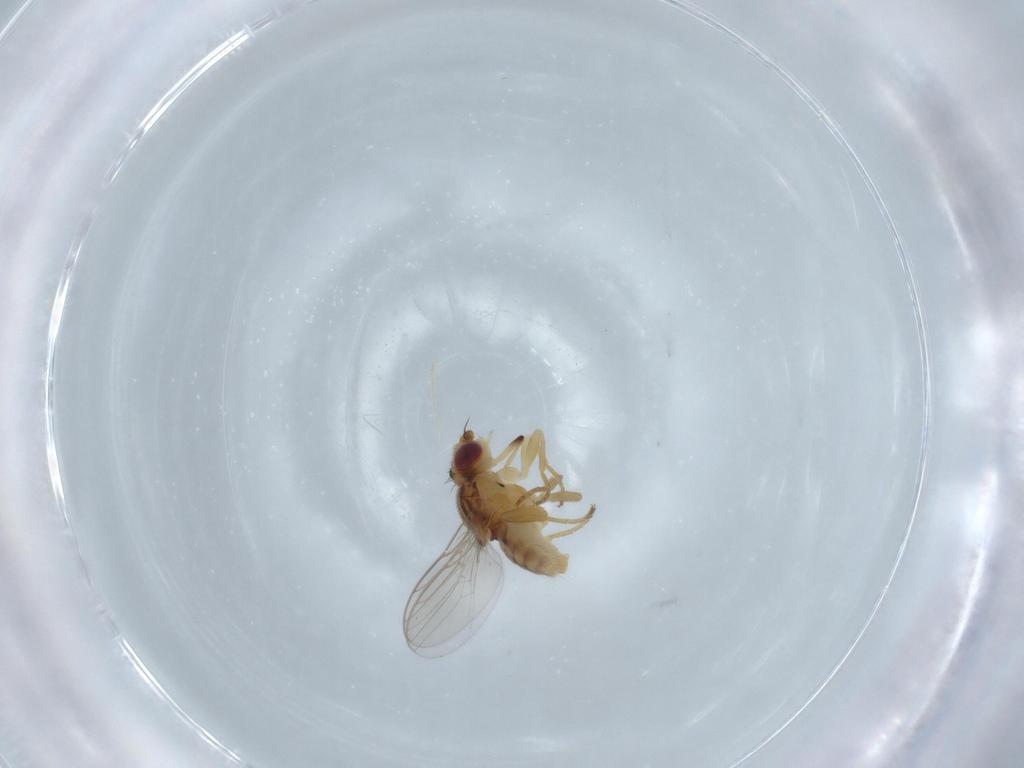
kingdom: Animalia
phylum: Arthropoda
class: Insecta
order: Diptera
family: Chloropidae
